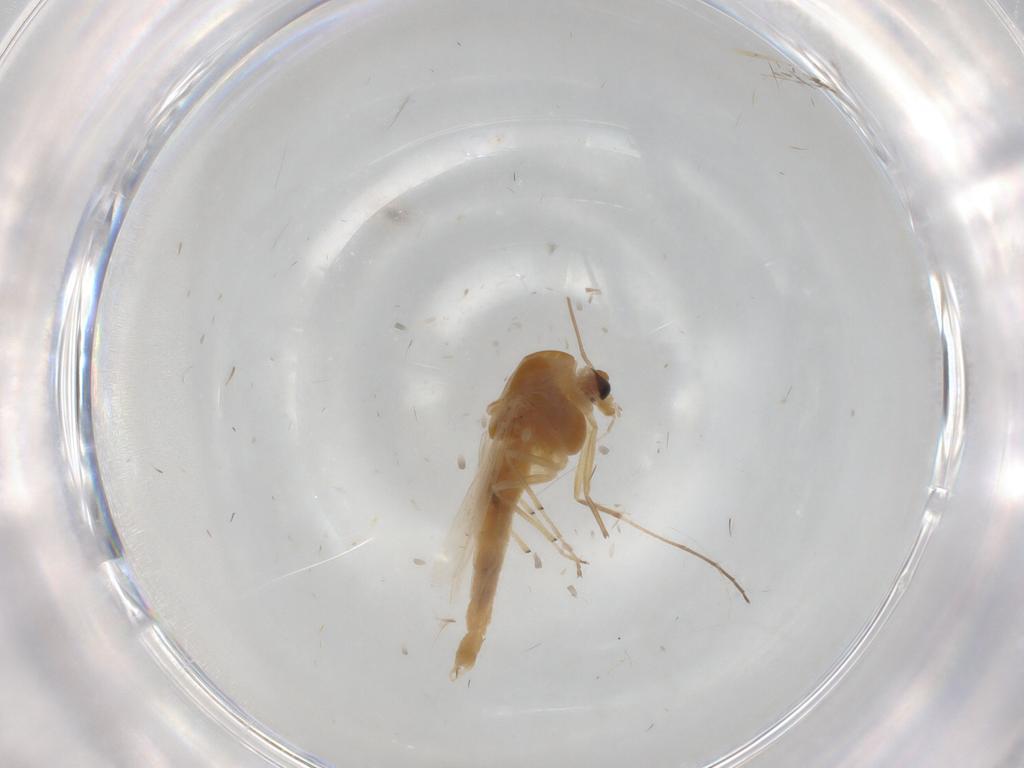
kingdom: Animalia
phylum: Arthropoda
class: Insecta
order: Diptera
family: Chironomidae
